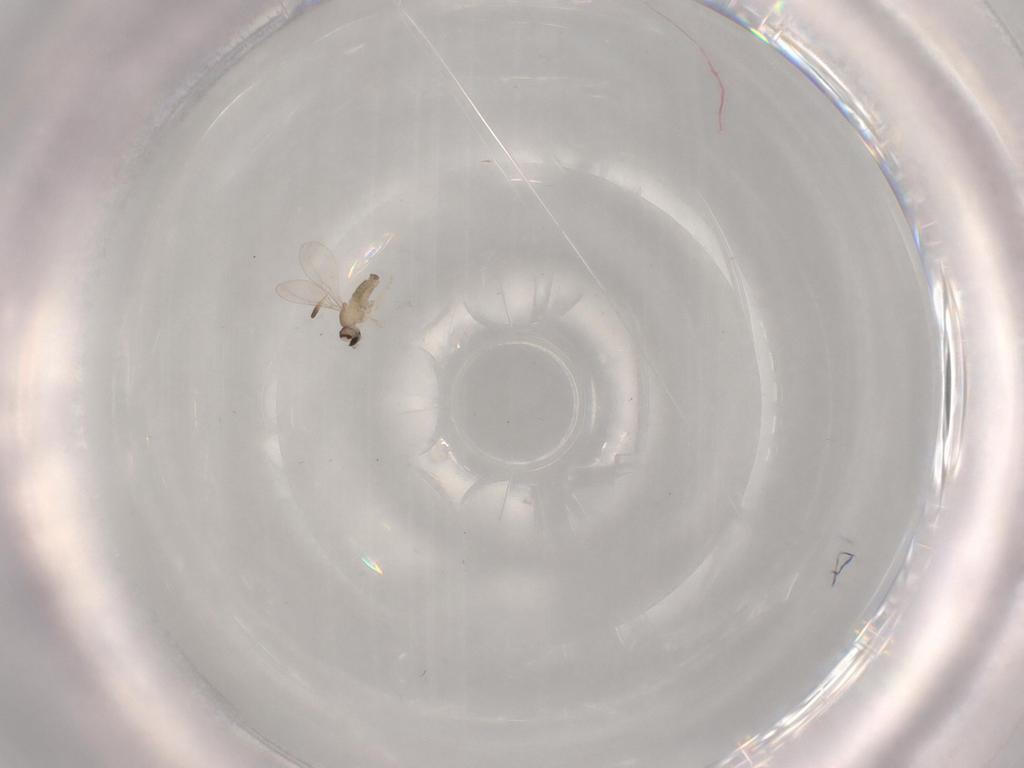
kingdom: Animalia
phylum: Arthropoda
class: Insecta
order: Diptera
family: Cecidomyiidae
